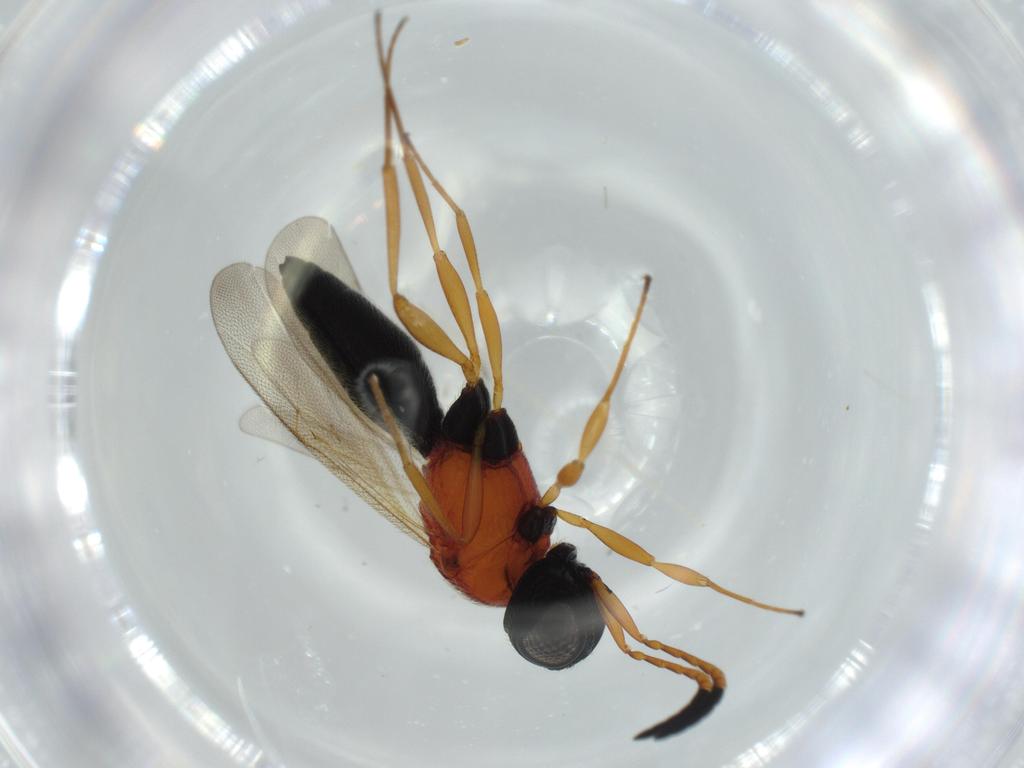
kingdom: Animalia
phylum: Arthropoda
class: Insecta
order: Hymenoptera
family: Scelionidae
